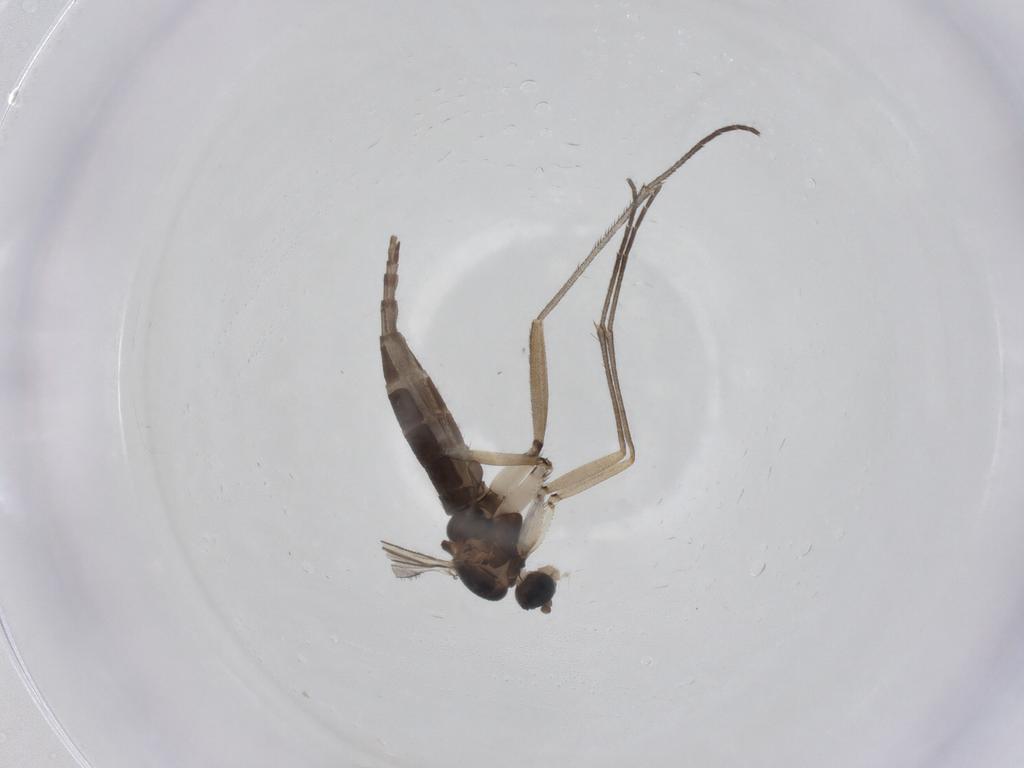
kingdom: Animalia
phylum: Arthropoda
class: Insecta
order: Diptera
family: Sciaridae
